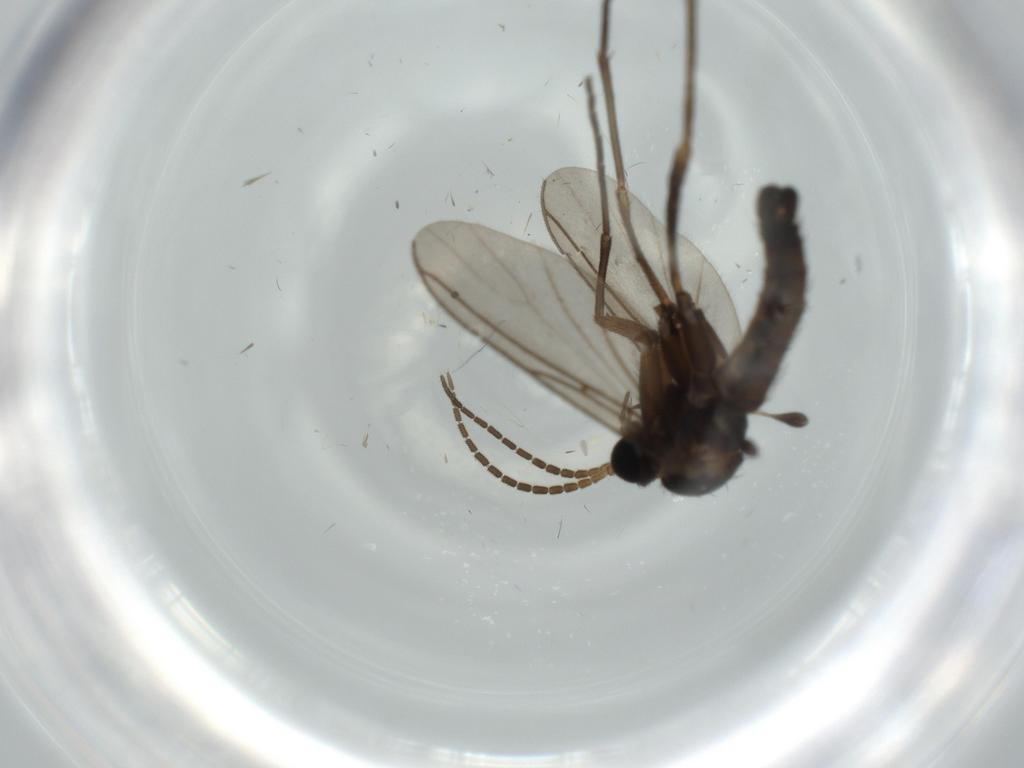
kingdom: Animalia
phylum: Arthropoda
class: Insecta
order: Diptera
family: Sciaridae
